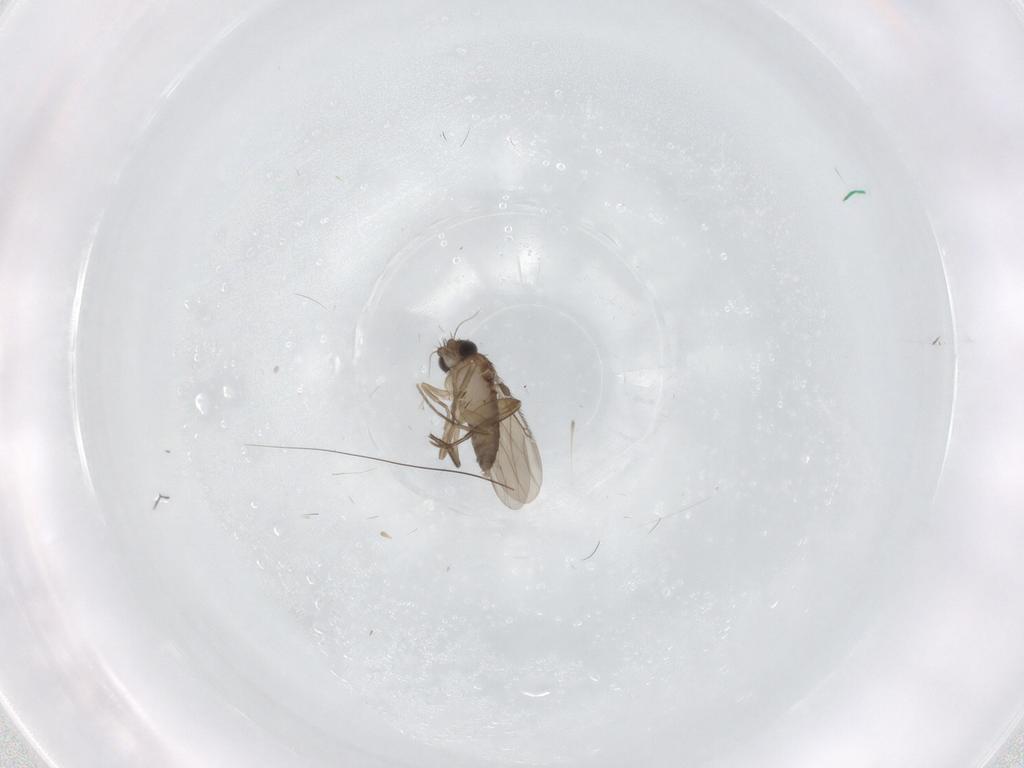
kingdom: Animalia
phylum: Arthropoda
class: Insecta
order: Diptera
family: Phoridae
